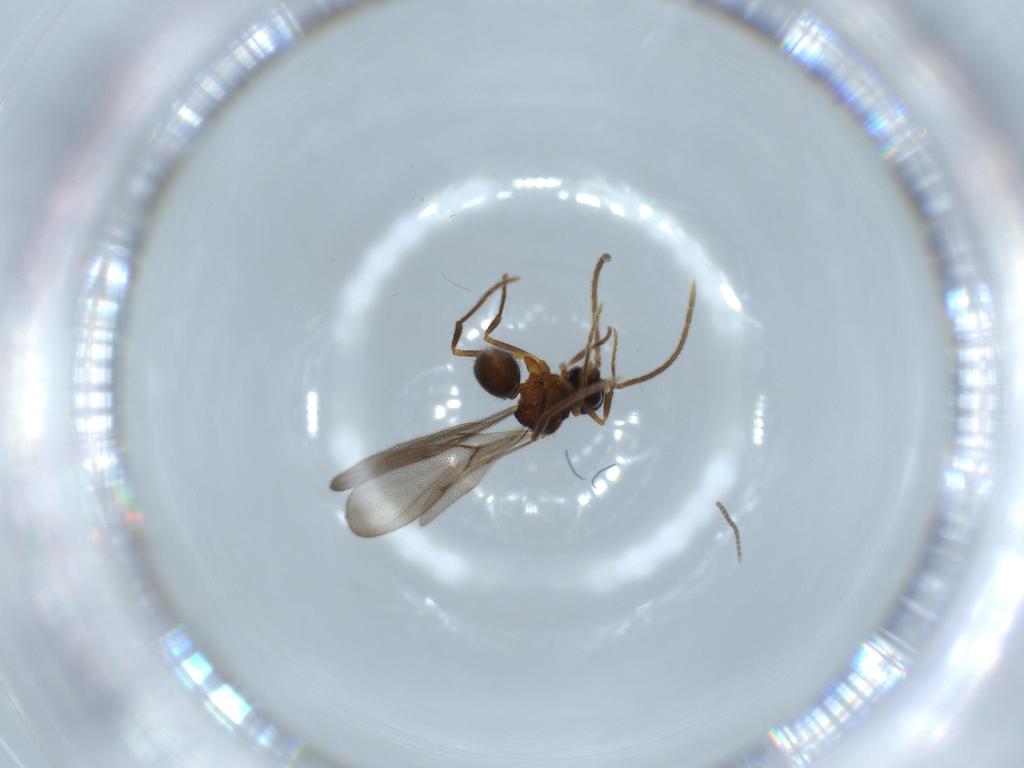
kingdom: Animalia
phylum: Arthropoda
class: Insecta
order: Hymenoptera
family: Formicidae
